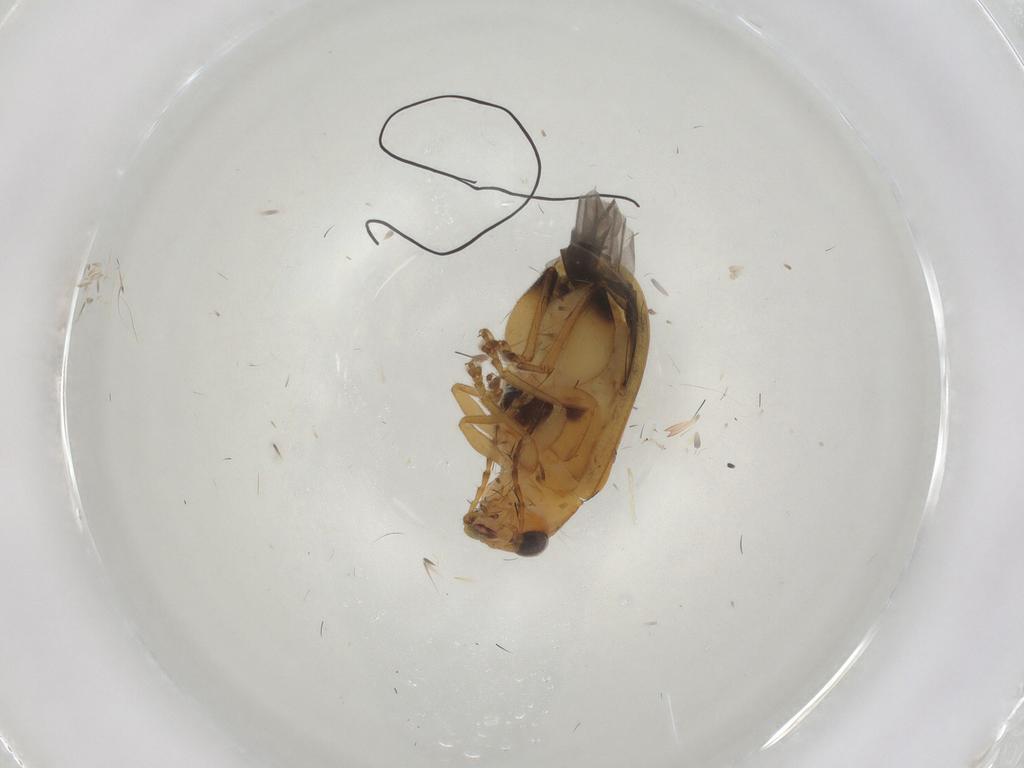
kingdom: Animalia
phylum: Arthropoda
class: Insecta
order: Coleoptera
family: Chrysomelidae
